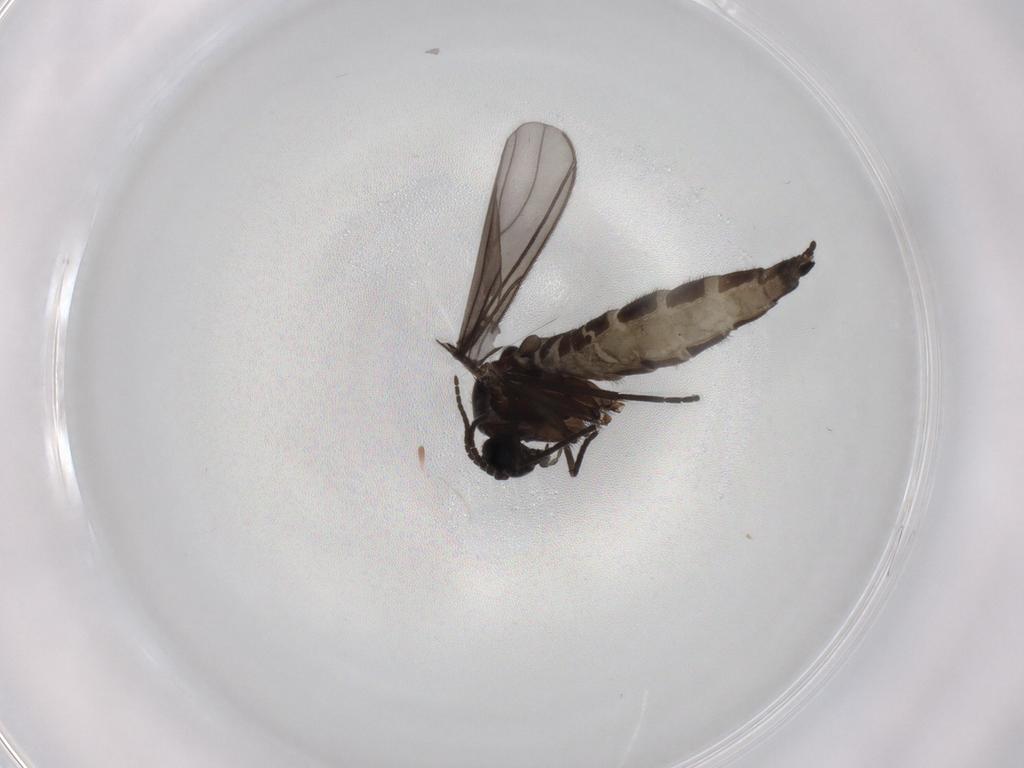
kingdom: Animalia
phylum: Arthropoda
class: Insecta
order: Diptera
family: Sciaridae
